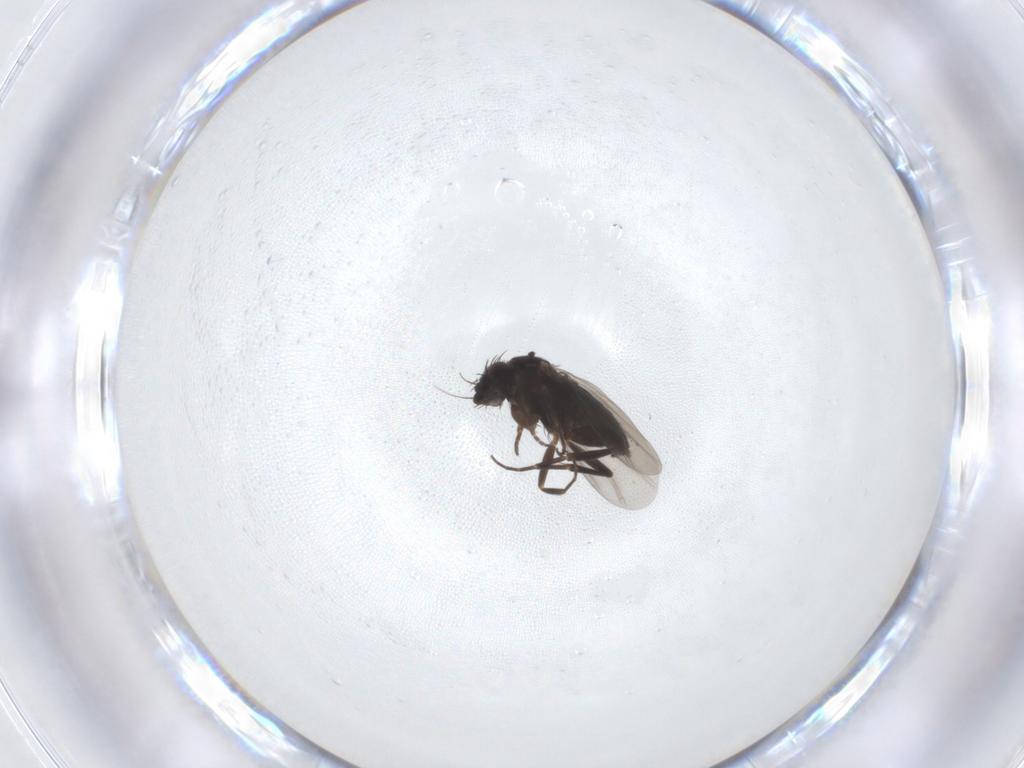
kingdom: Animalia
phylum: Arthropoda
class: Insecta
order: Diptera
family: Phoridae
